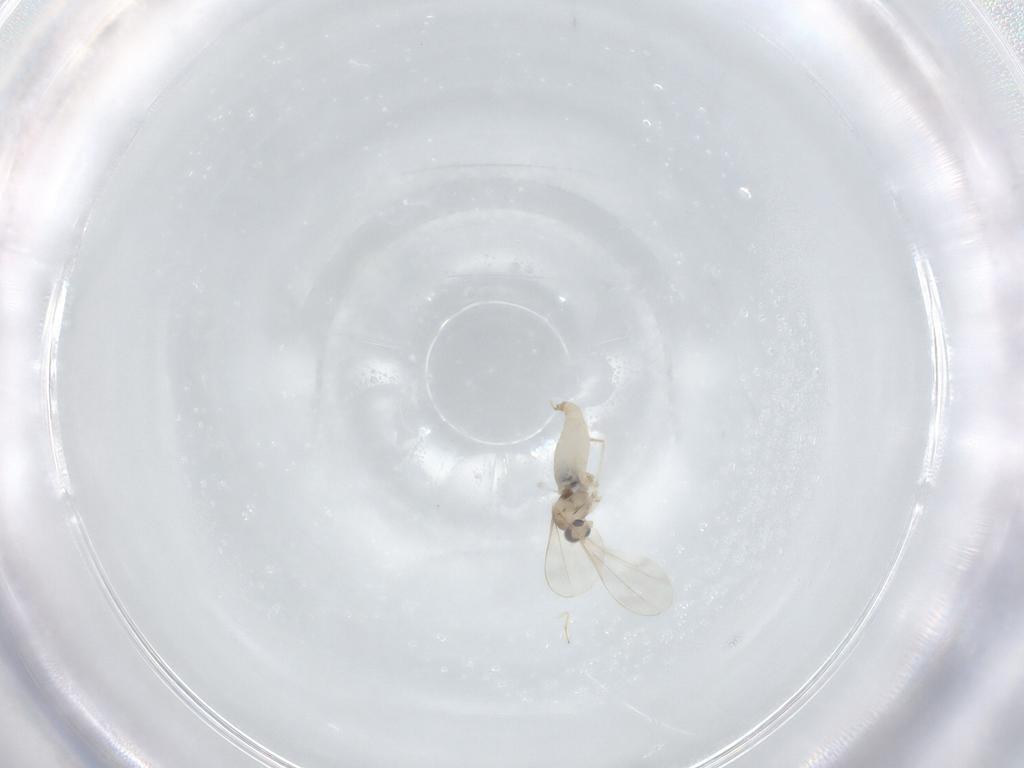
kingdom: Animalia
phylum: Arthropoda
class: Insecta
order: Diptera
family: Cecidomyiidae
